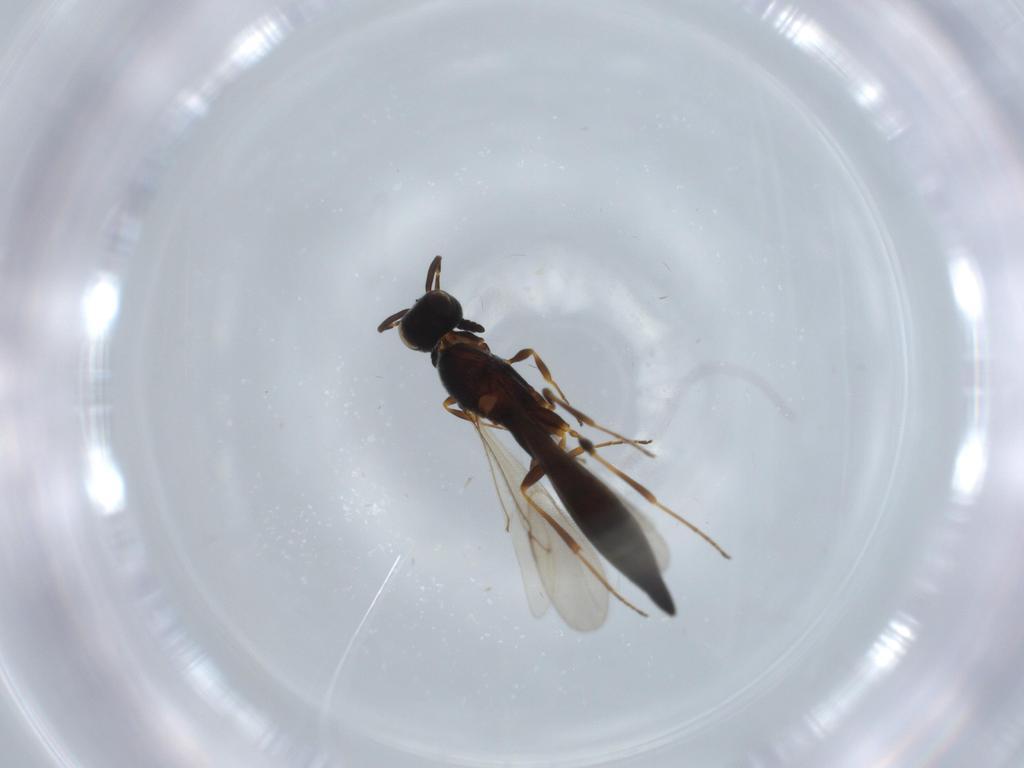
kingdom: Animalia
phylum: Arthropoda
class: Insecta
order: Hymenoptera
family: Scelionidae
